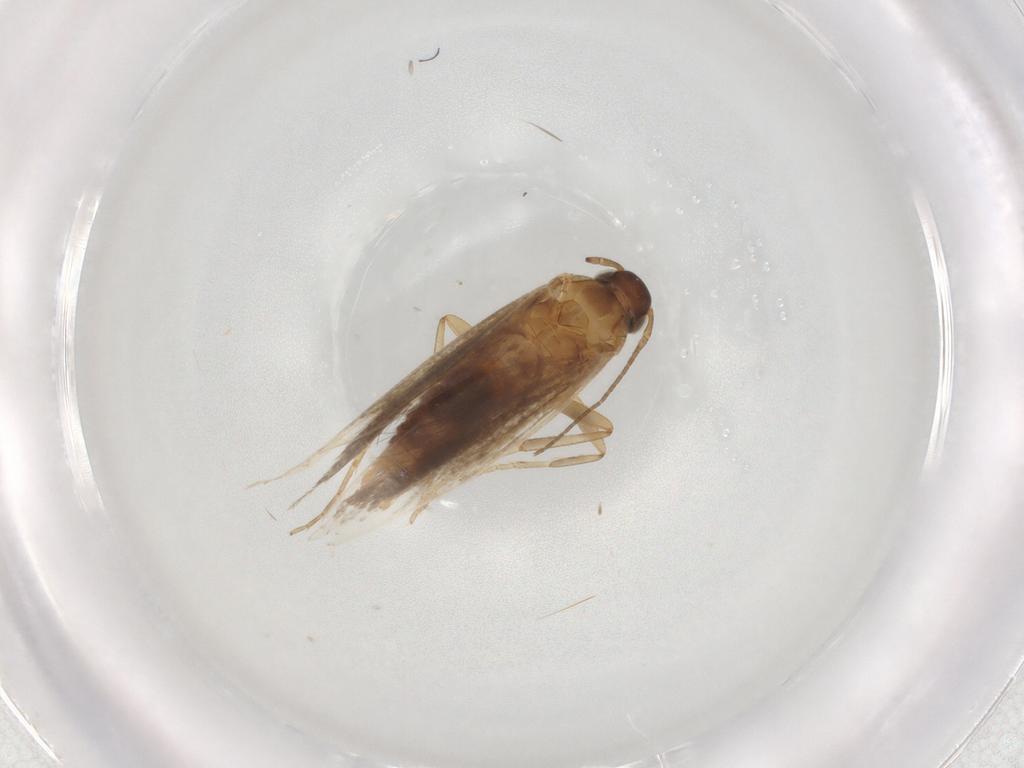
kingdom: Animalia
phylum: Arthropoda
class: Insecta
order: Lepidoptera
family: Gelechiidae
